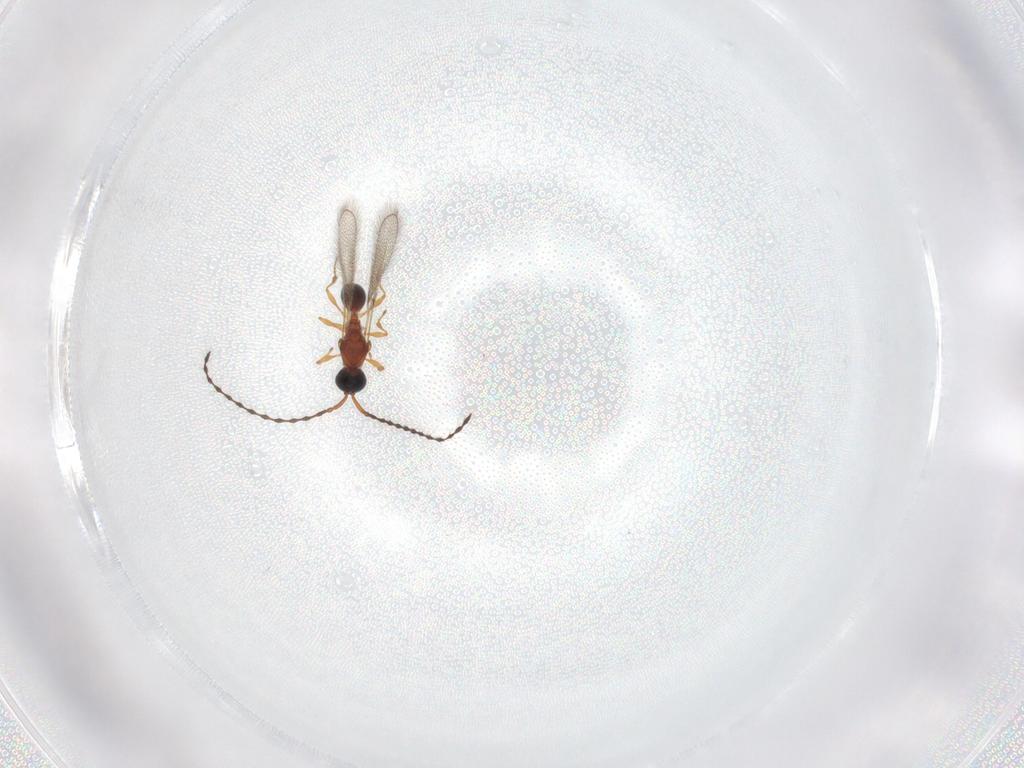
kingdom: Animalia
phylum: Arthropoda
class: Insecta
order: Hymenoptera
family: Diapriidae
